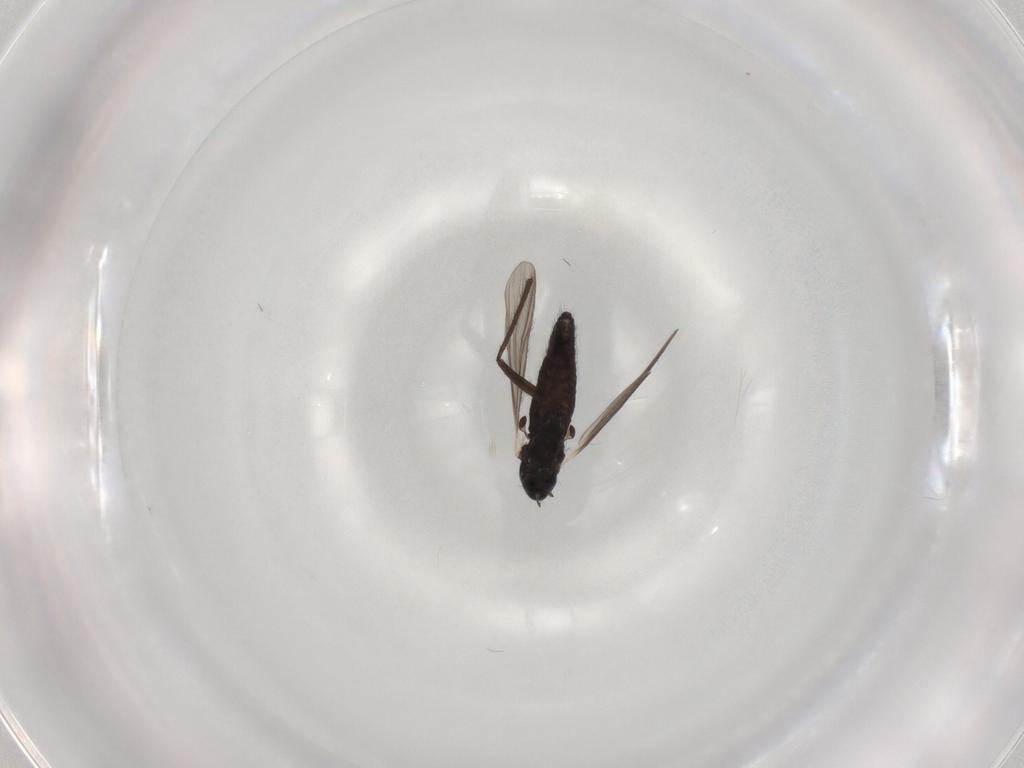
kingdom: Animalia
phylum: Arthropoda
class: Insecta
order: Diptera
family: Chironomidae
